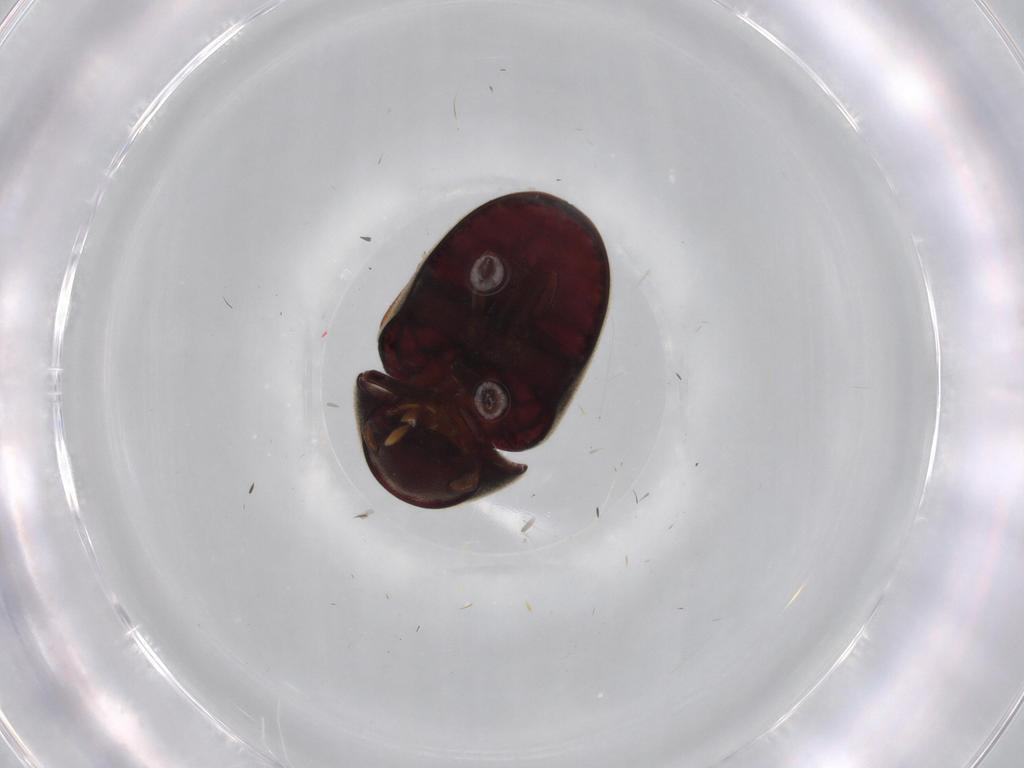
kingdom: Animalia
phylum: Arthropoda
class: Insecta
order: Coleoptera
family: Ptinidae
